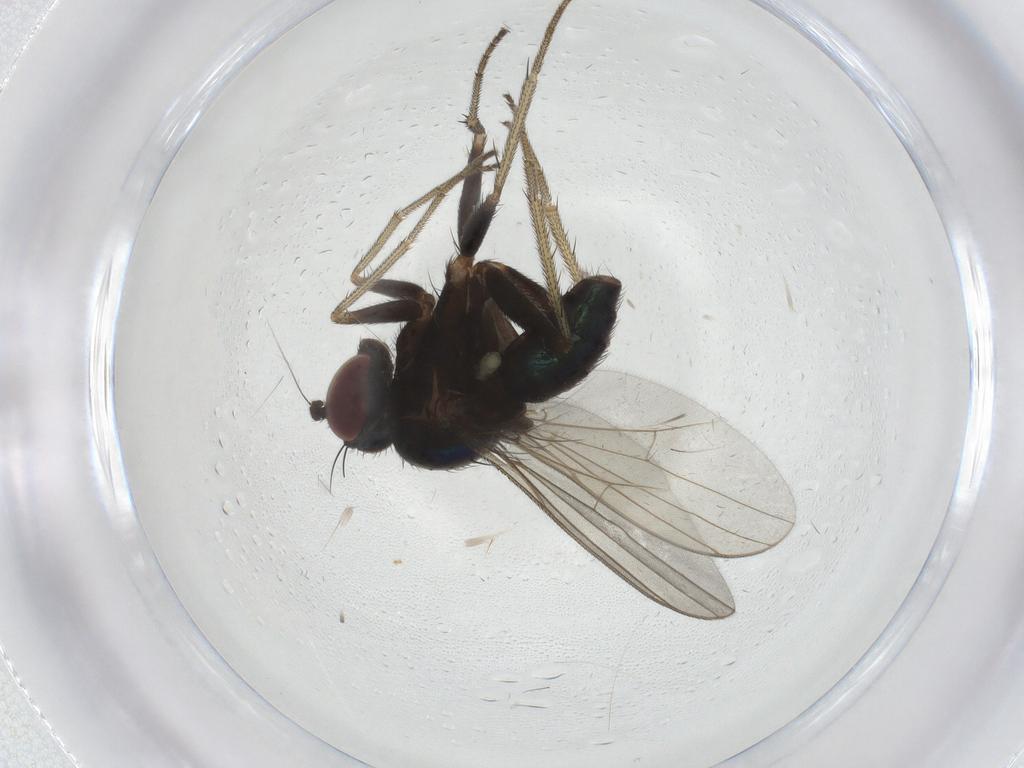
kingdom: Animalia
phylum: Arthropoda
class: Insecta
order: Diptera
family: Dolichopodidae
